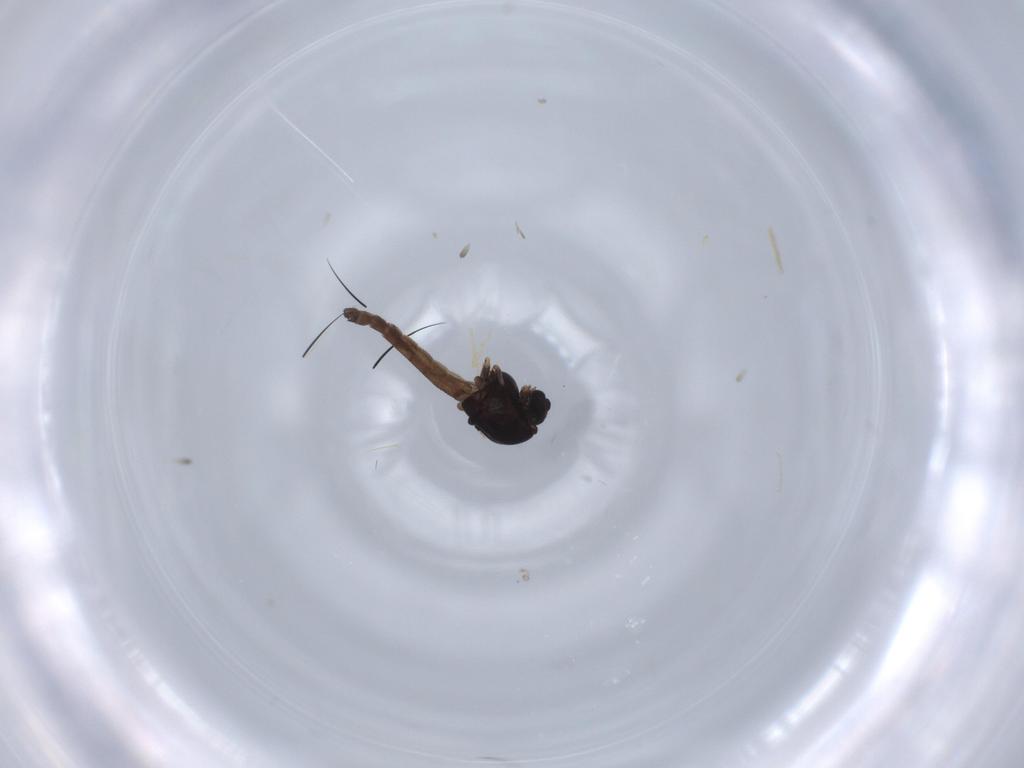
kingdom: Animalia
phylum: Arthropoda
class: Insecta
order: Diptera
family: Chironomidae
